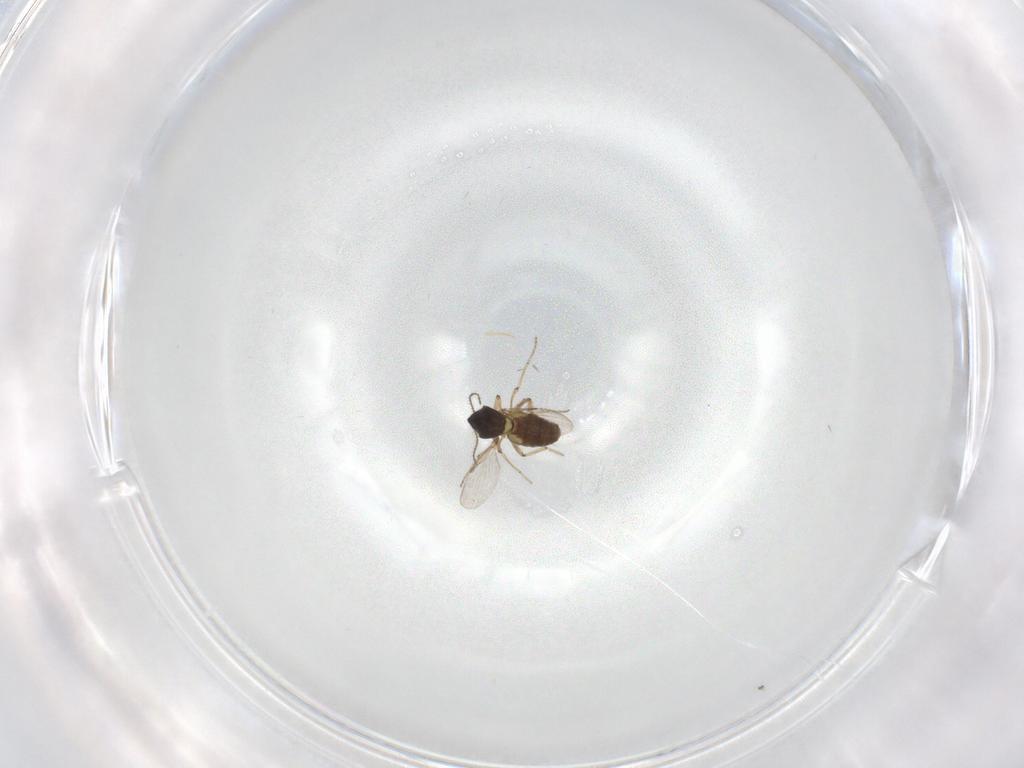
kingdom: Animalia
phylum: Arthropoda
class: Insecta
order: Diptera
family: Ceratopogonidae
